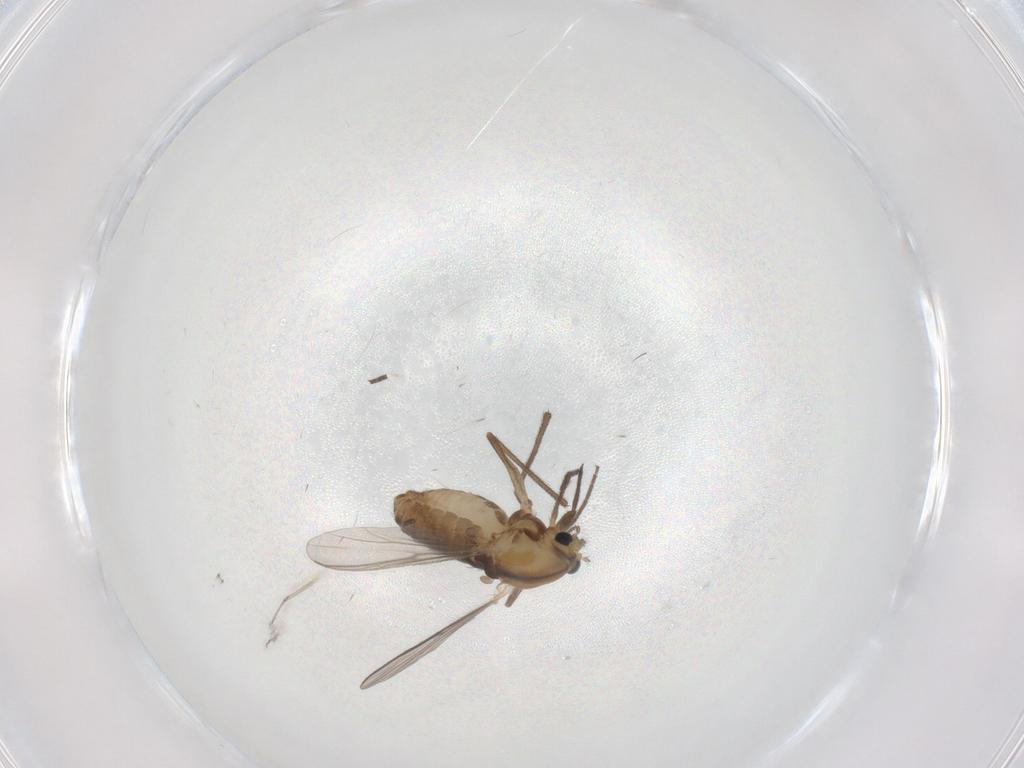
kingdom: Animalia
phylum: Arthropoda
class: Insecta
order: Diptera
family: Chironomidae
